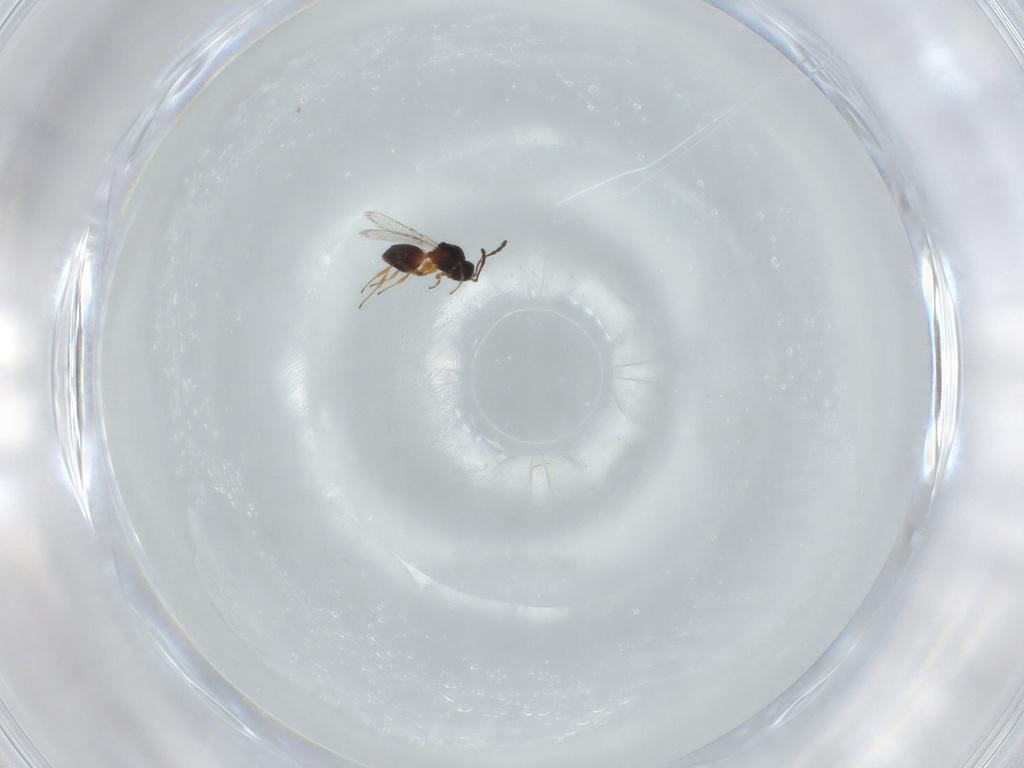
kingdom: Animalia
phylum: Arthropoda
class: Insecta
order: Hymenoptera
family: Figitidae
